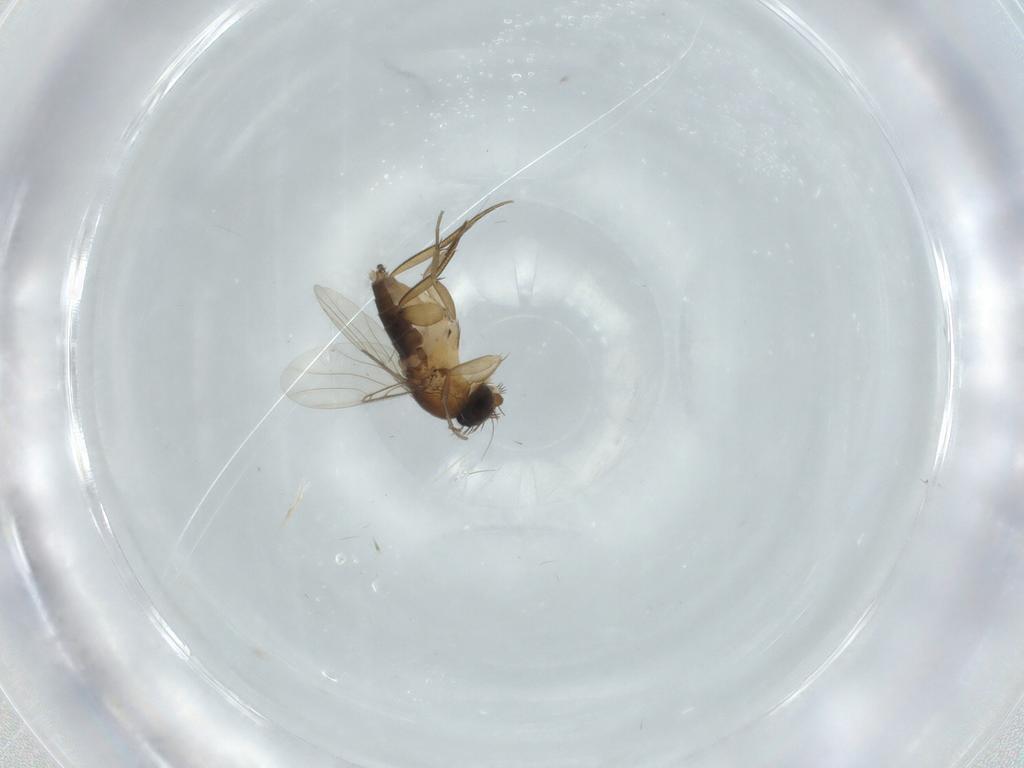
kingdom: Animalia
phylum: Arthropoda
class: Insecta
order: Diptera
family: Phoridae
